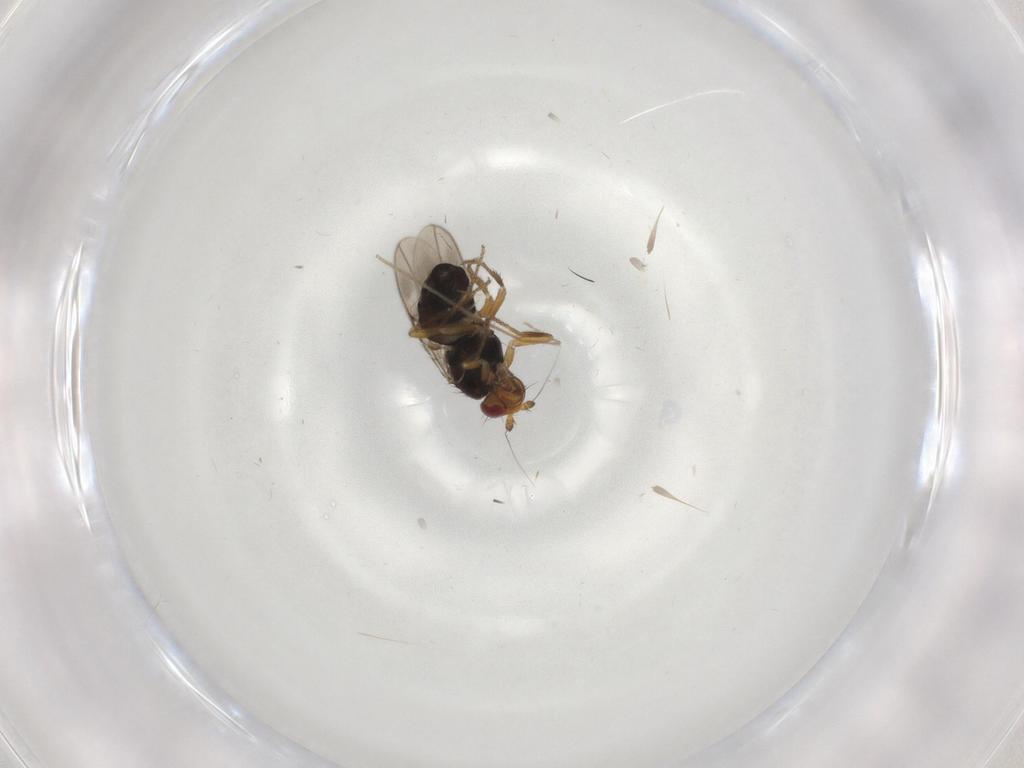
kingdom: Animalia
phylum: Arthropoda
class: Insecta
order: Diptera
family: Sphaeroceridae
